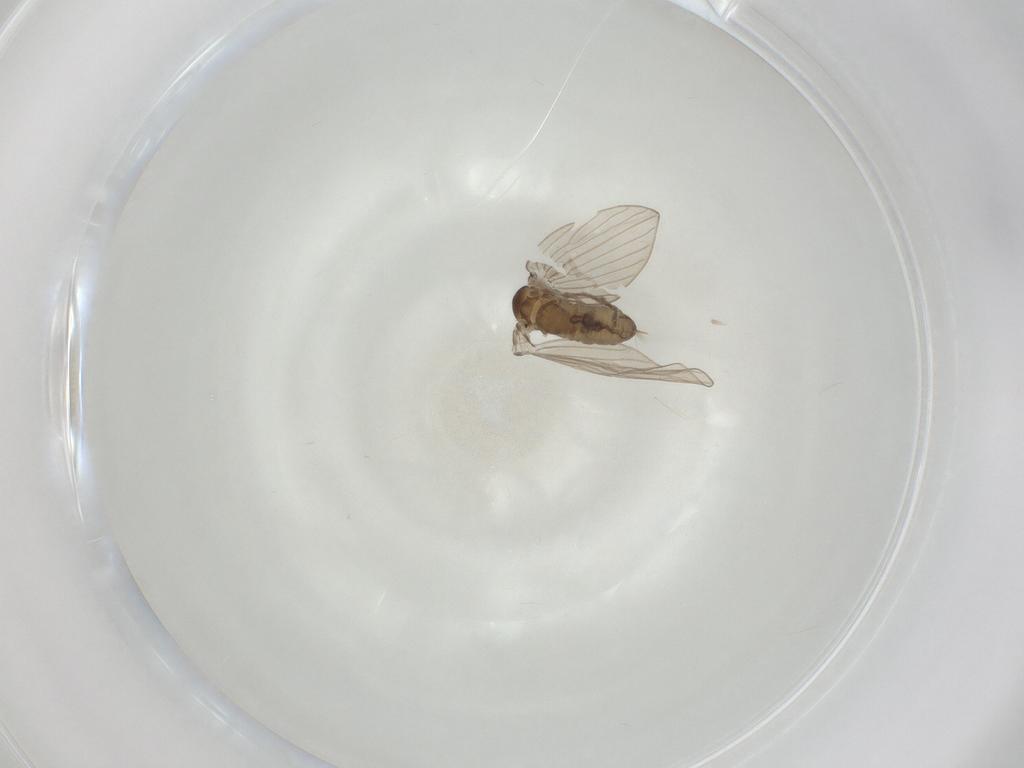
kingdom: Animalia
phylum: Arthropoda
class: Insecta
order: Diptera
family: Psychodidae
